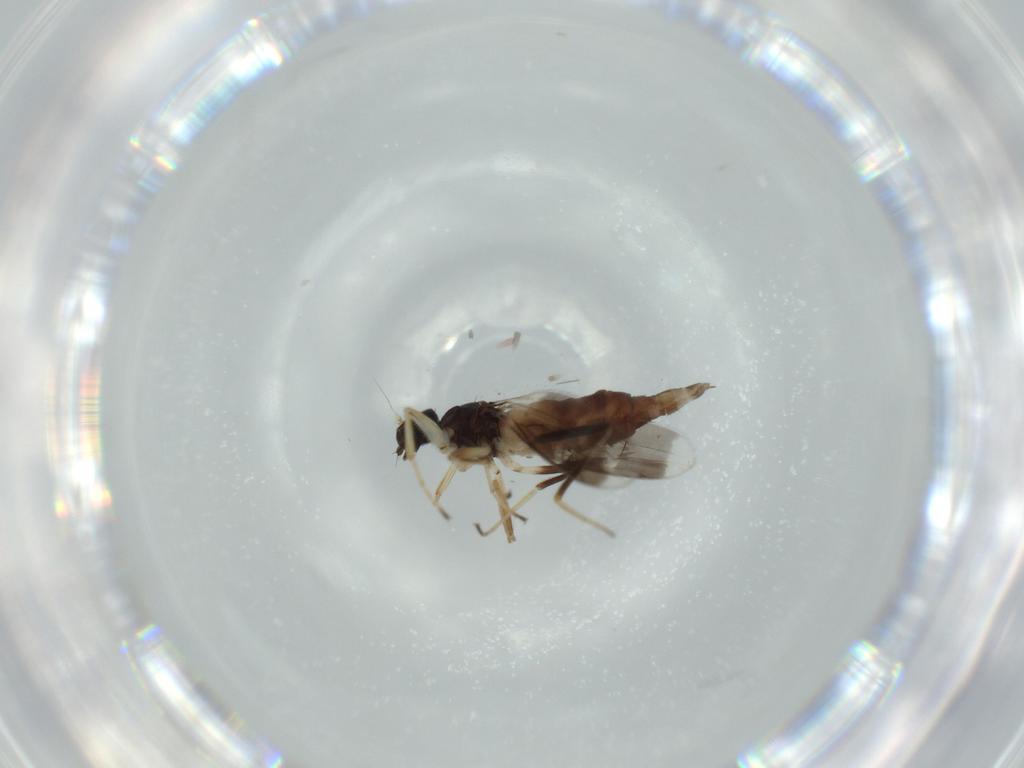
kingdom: Animalia
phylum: Arthropoda
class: Insecta
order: Diptera
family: Hybotidae
